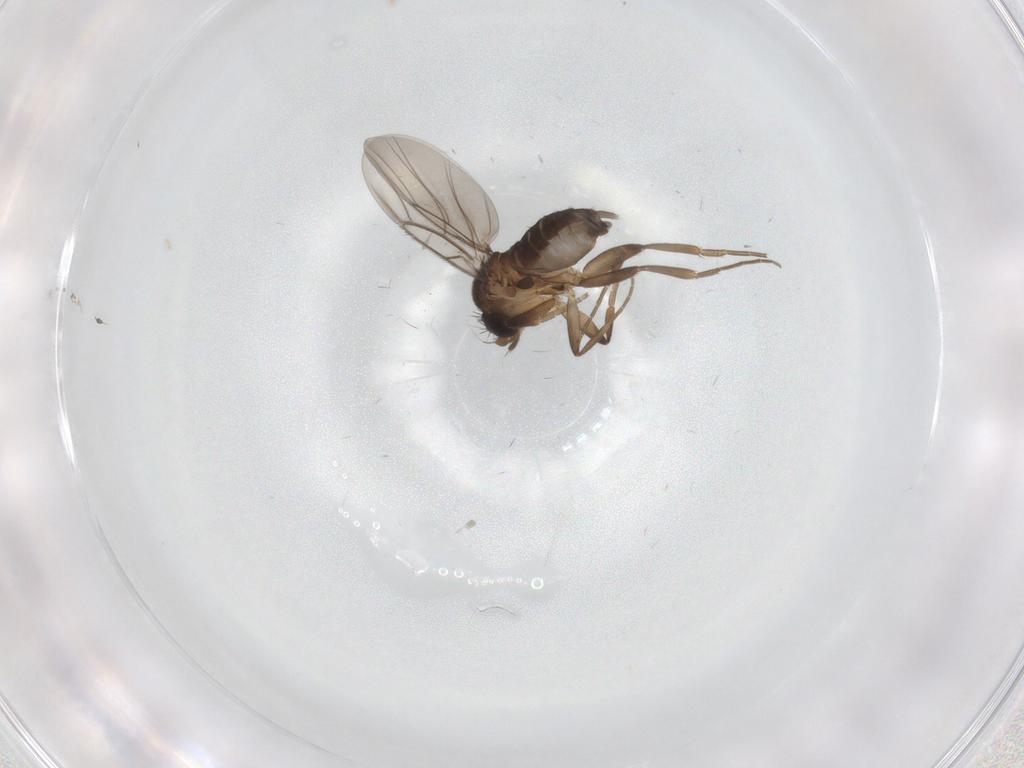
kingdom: Animalia
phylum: Arthropoda
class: Insecta
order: Diptera
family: Phoridae
